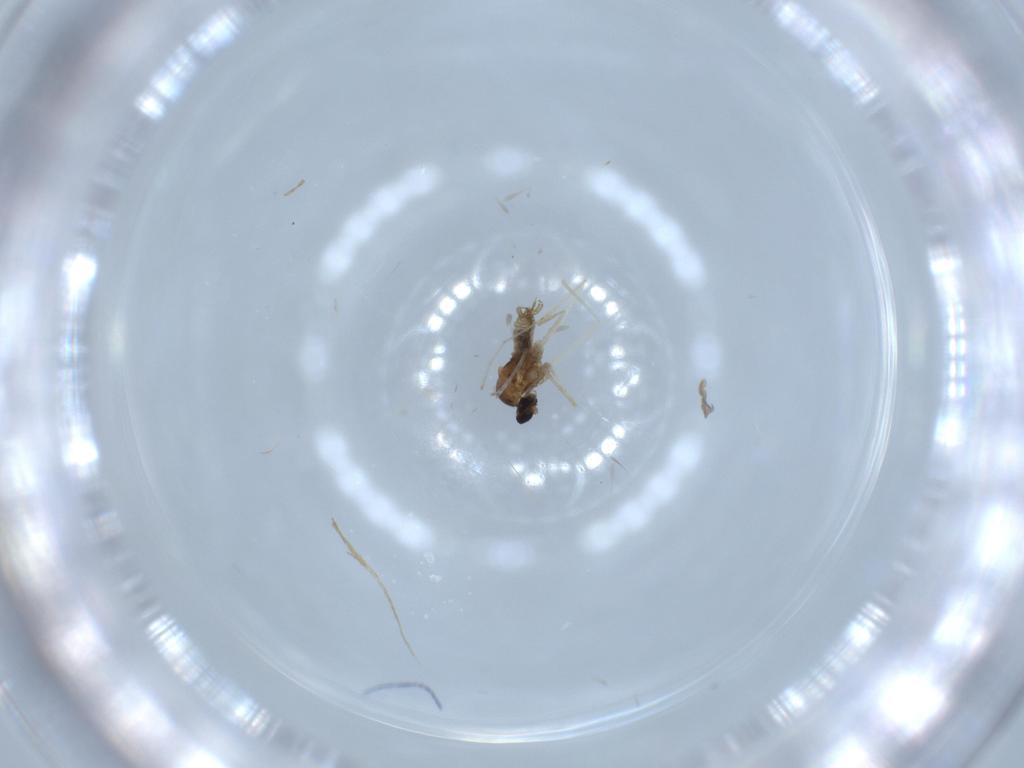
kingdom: Animalia
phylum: Arthropoda
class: Insecta
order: Diptera
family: Cecidomyiidae
